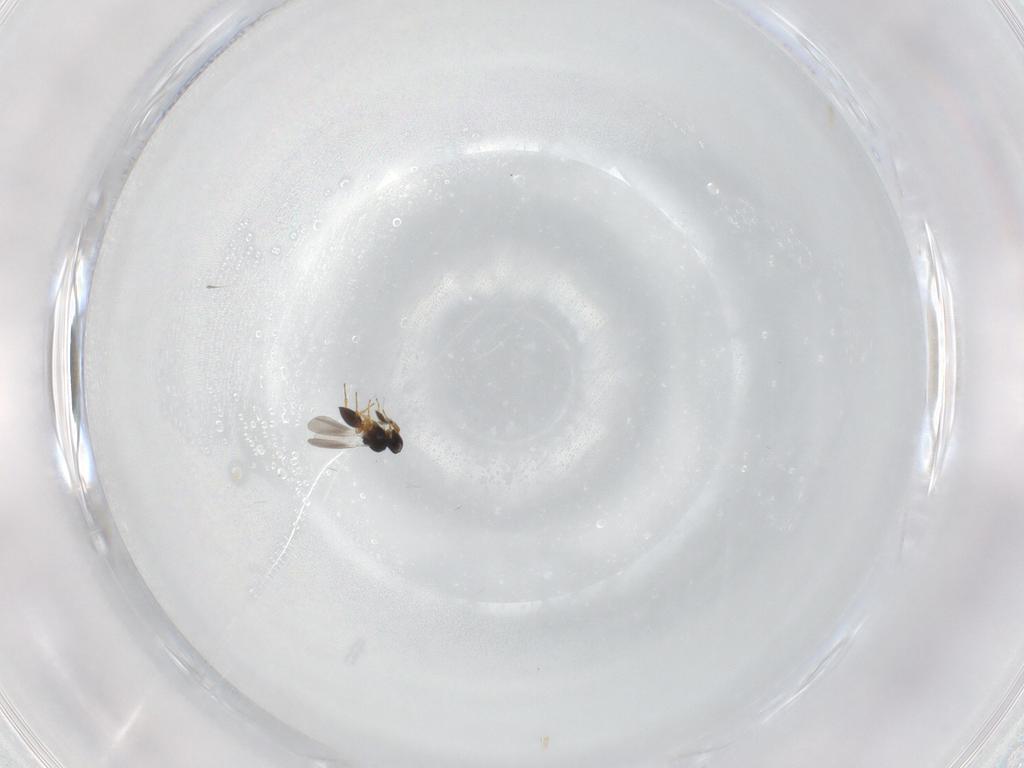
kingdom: Animalia
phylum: Arthropoda
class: Insecta
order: Hymenoptera
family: Platygastridae
